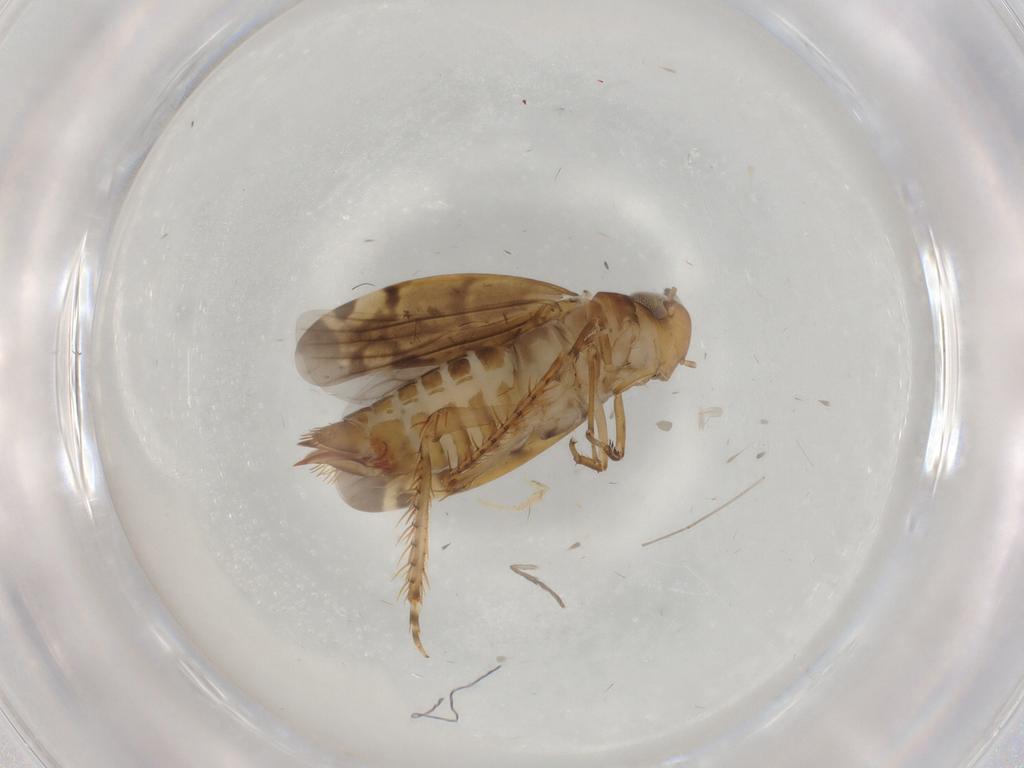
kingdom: Animalia
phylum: Arthropoda
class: Insecta
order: Hemiptera
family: Cicadellidae
